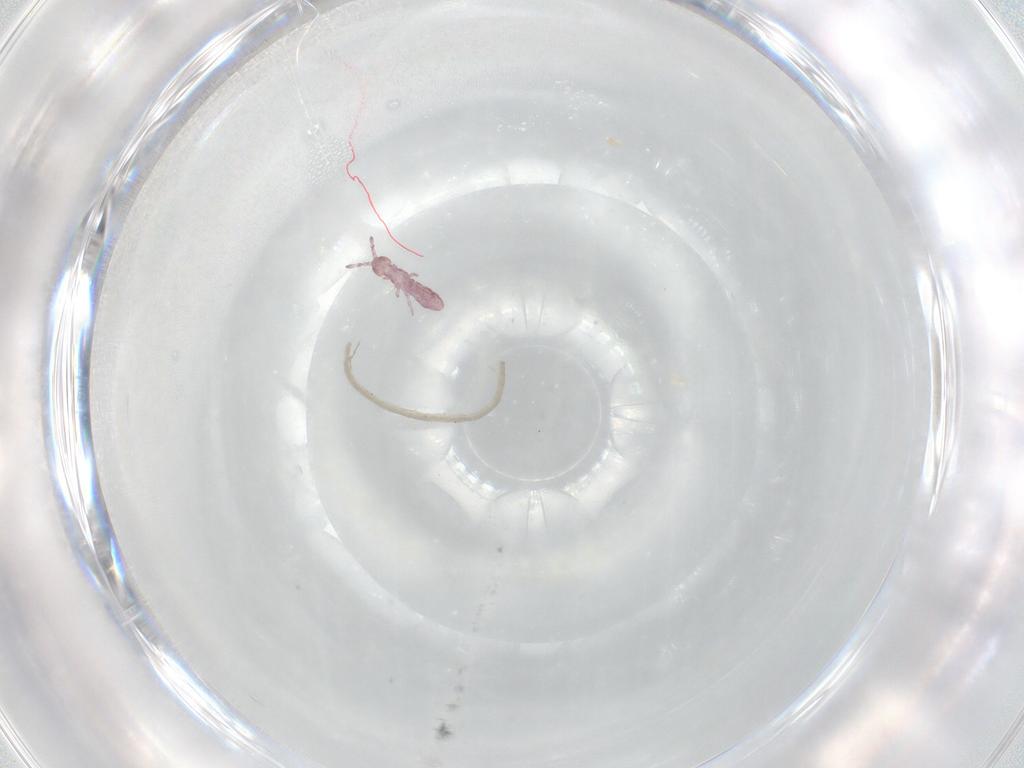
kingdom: Animalia
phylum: Arthropoda
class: Collembola
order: Entomobryomorpha
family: Isotomidae
